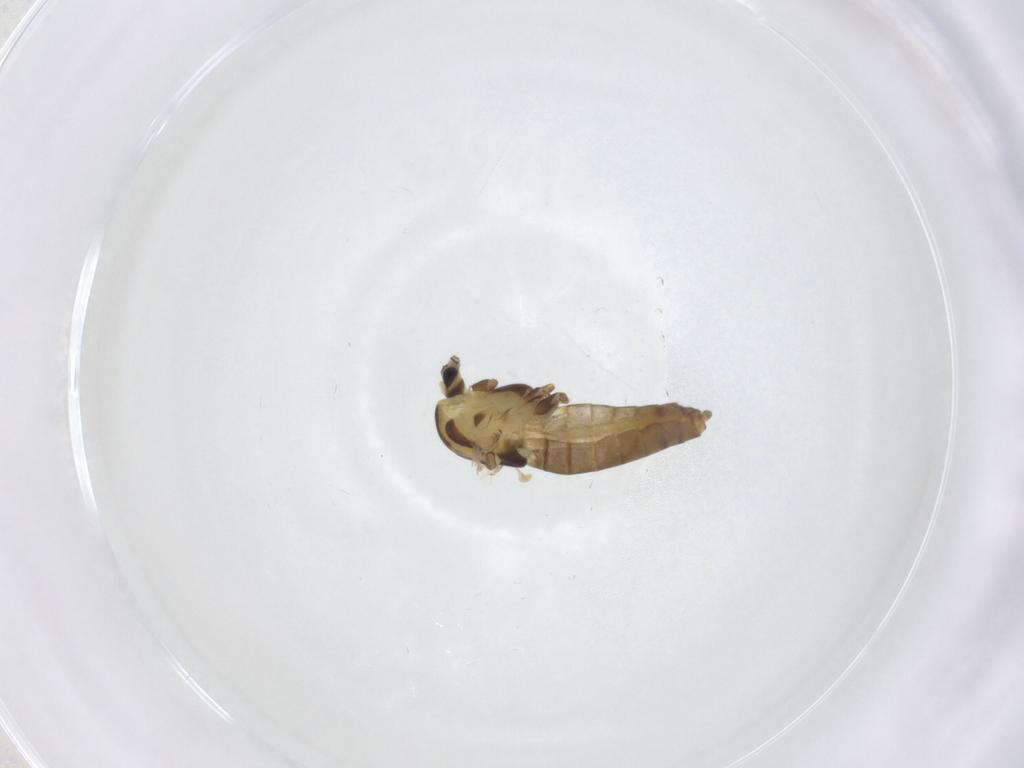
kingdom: Animalia
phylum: Arthropoda
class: Insecta
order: Diptera
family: Chironomidae
